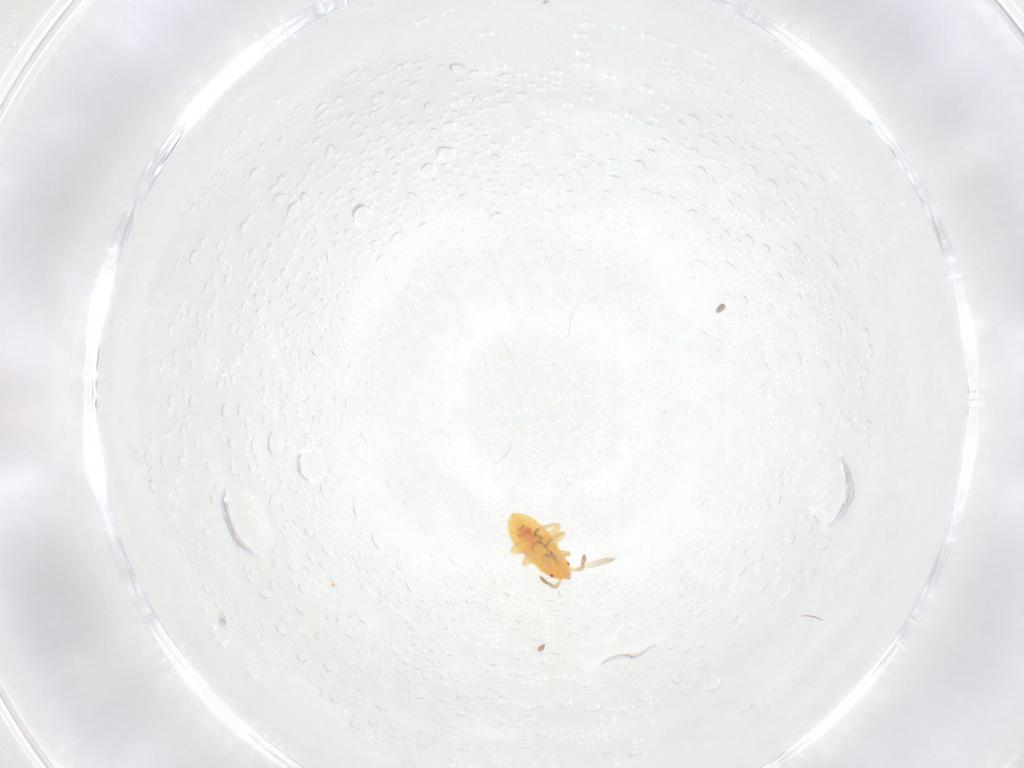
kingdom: Animalia
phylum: Arthropoda
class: Insecta
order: Hemiptera
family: Anthocoridae
